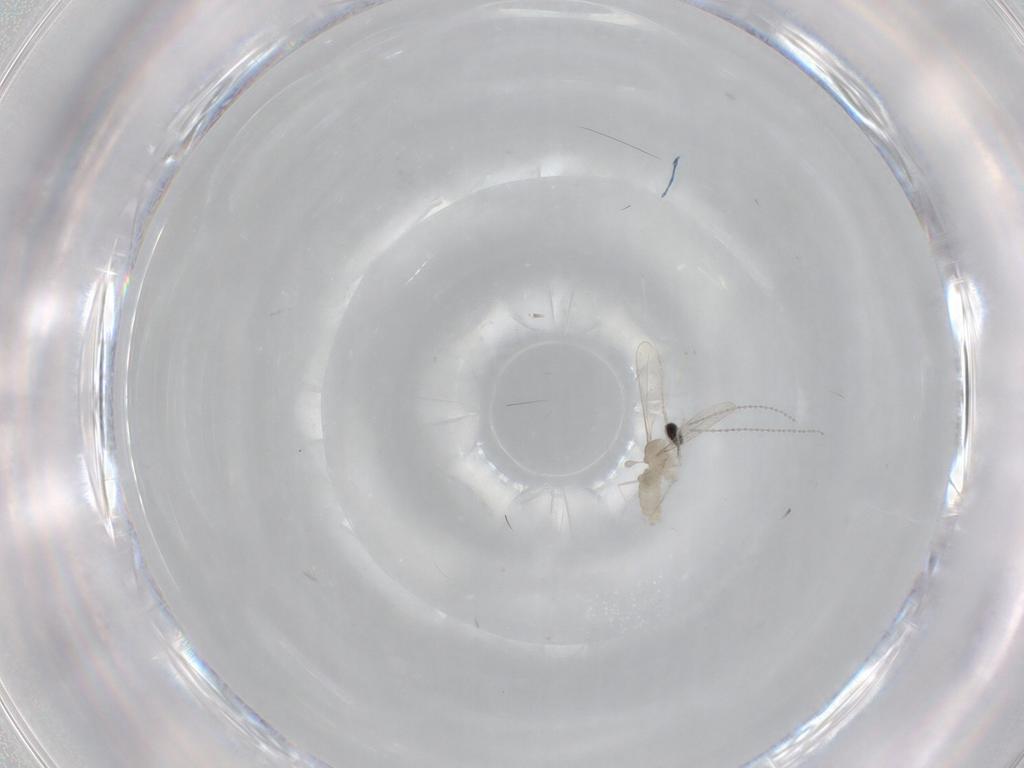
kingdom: Animalia
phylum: Arthropoda
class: Insecta
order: Diptera
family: Cecidomyiidae
